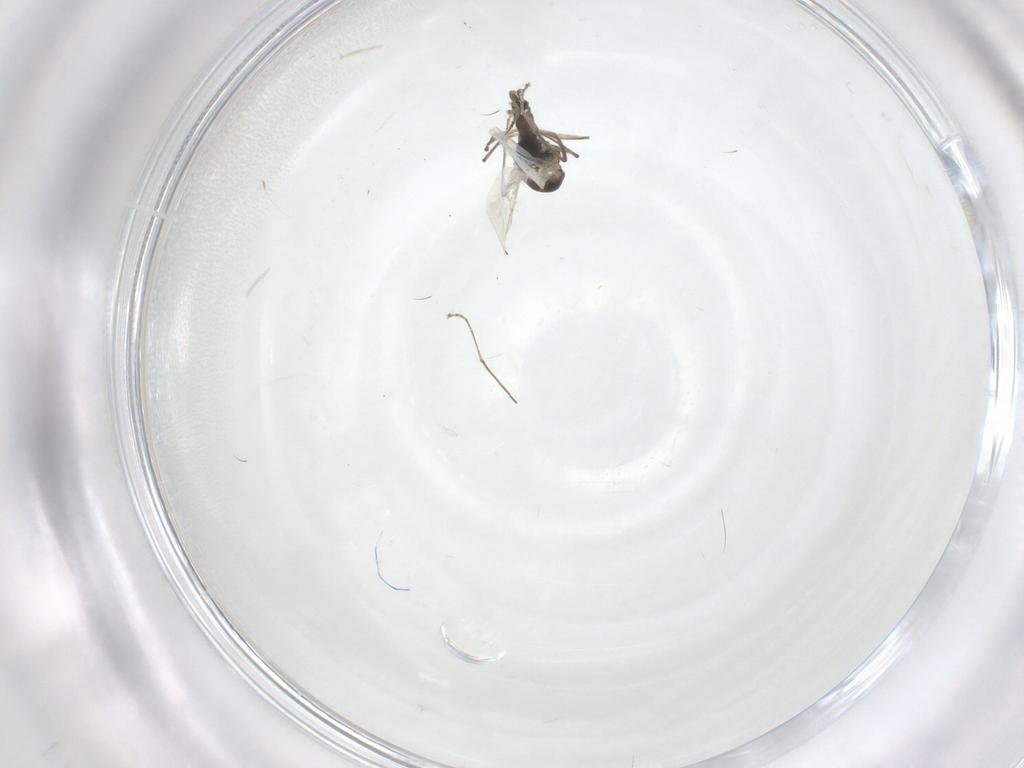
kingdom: Animalia
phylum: Arthropoda
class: Insecta
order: Diptera
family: Cecidomyiidae
